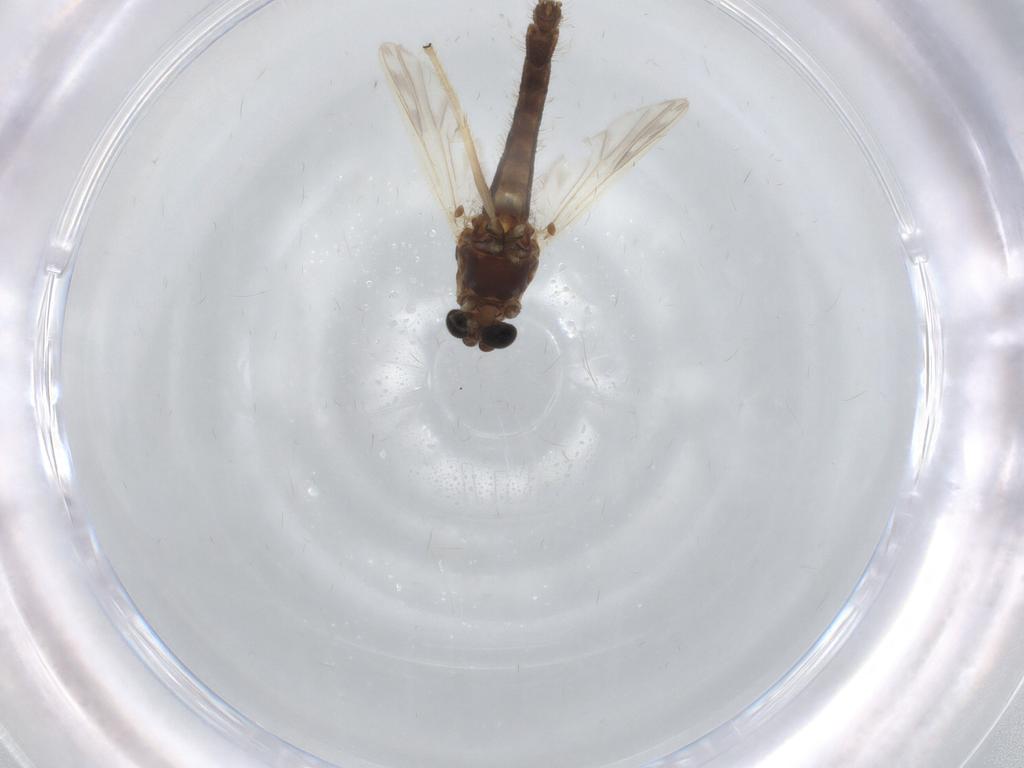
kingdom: Animalia
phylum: Arthropoda
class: Insecta
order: Diptera
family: Chironomidae
